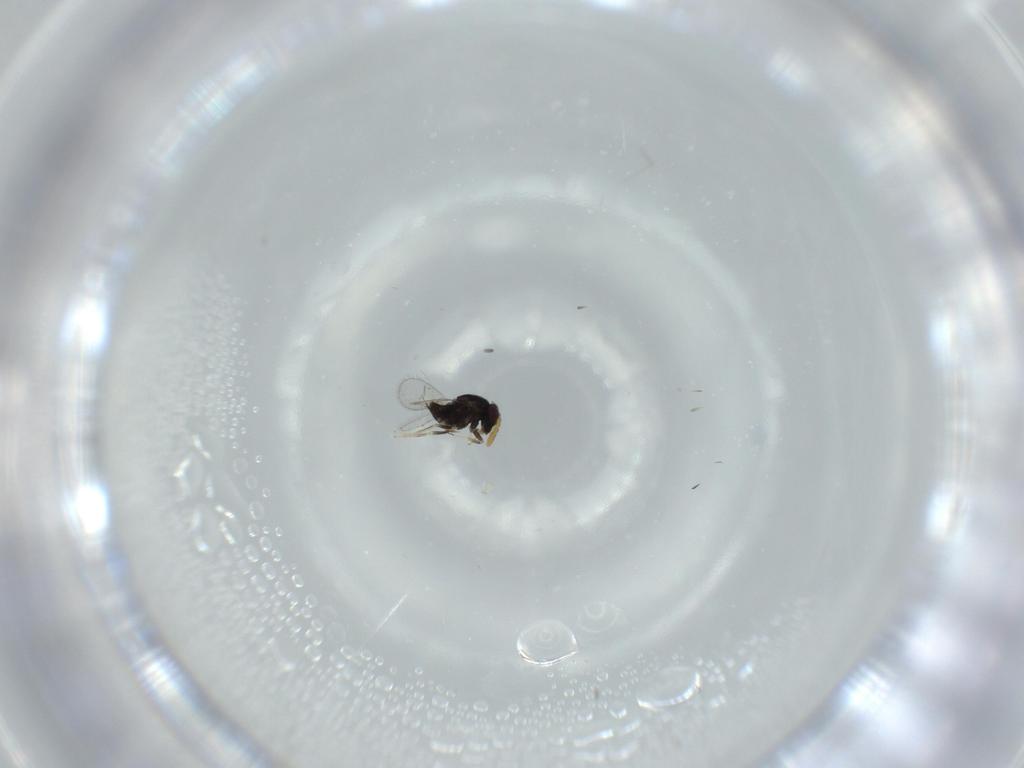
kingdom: Animalia
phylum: Arthropoda
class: Insecta
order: Hymenoptera
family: Aphelinidae
